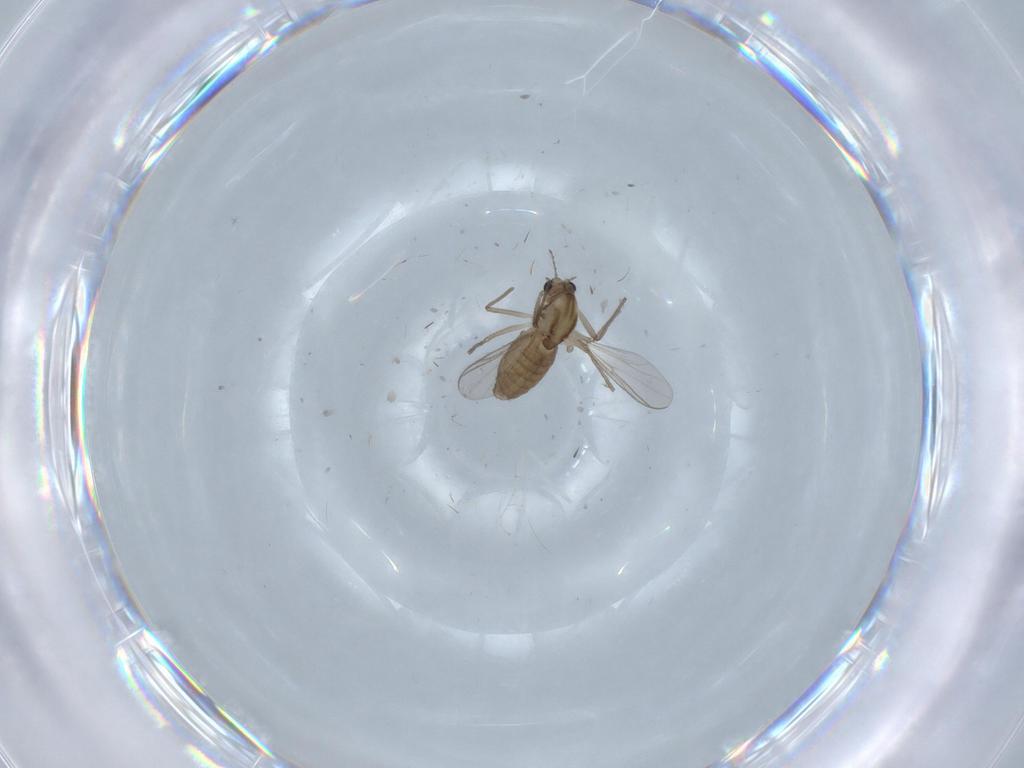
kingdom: Animalia
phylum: Arthropoda
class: Insecta
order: Diptera
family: Chironomidae
